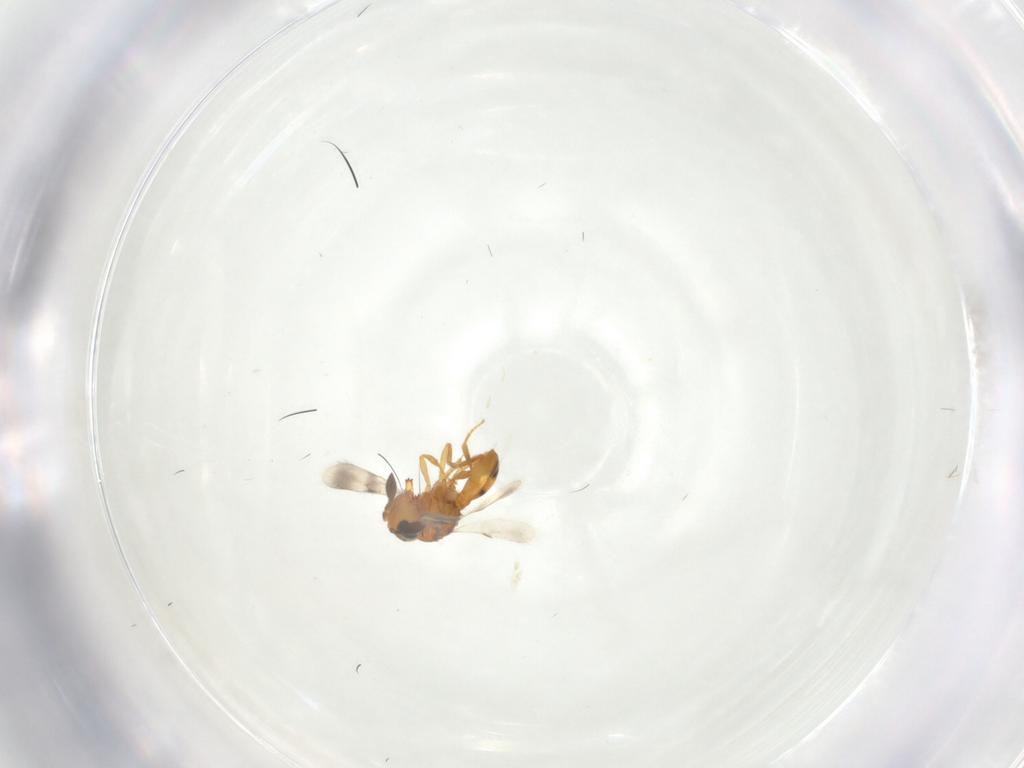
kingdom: Animalia
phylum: Arthropoda
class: Insecta
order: Hymenoptera
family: Scelionidae
